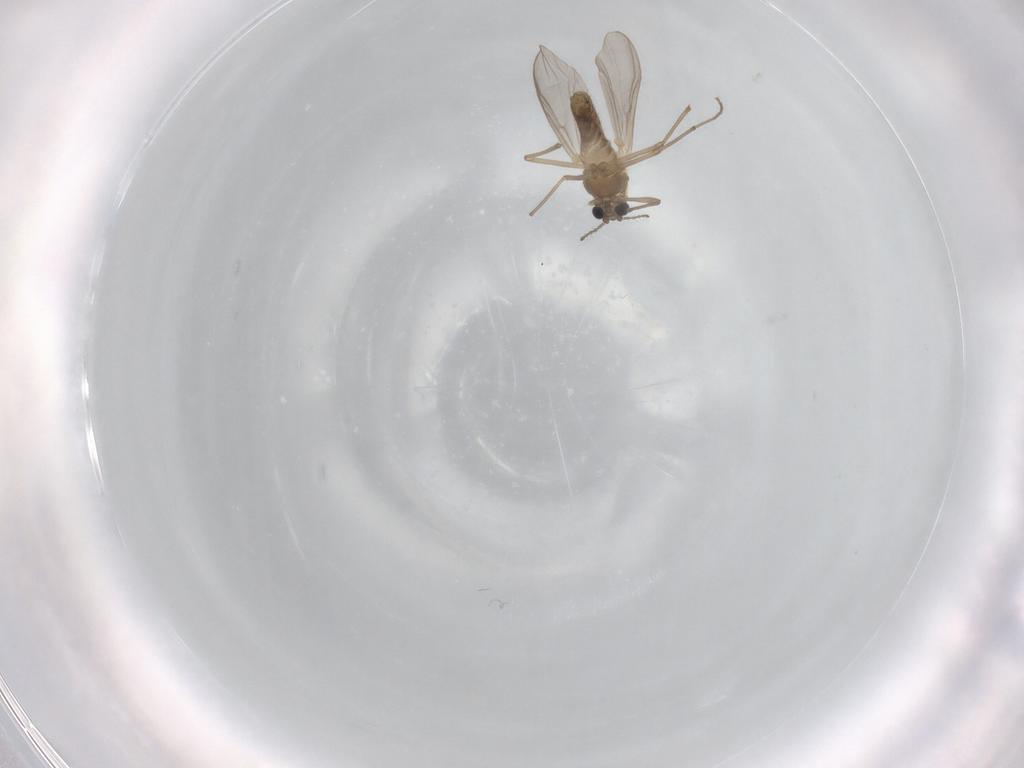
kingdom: Animalia
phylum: Arthropoda
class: Insecta
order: Diptera
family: Chironomidae
